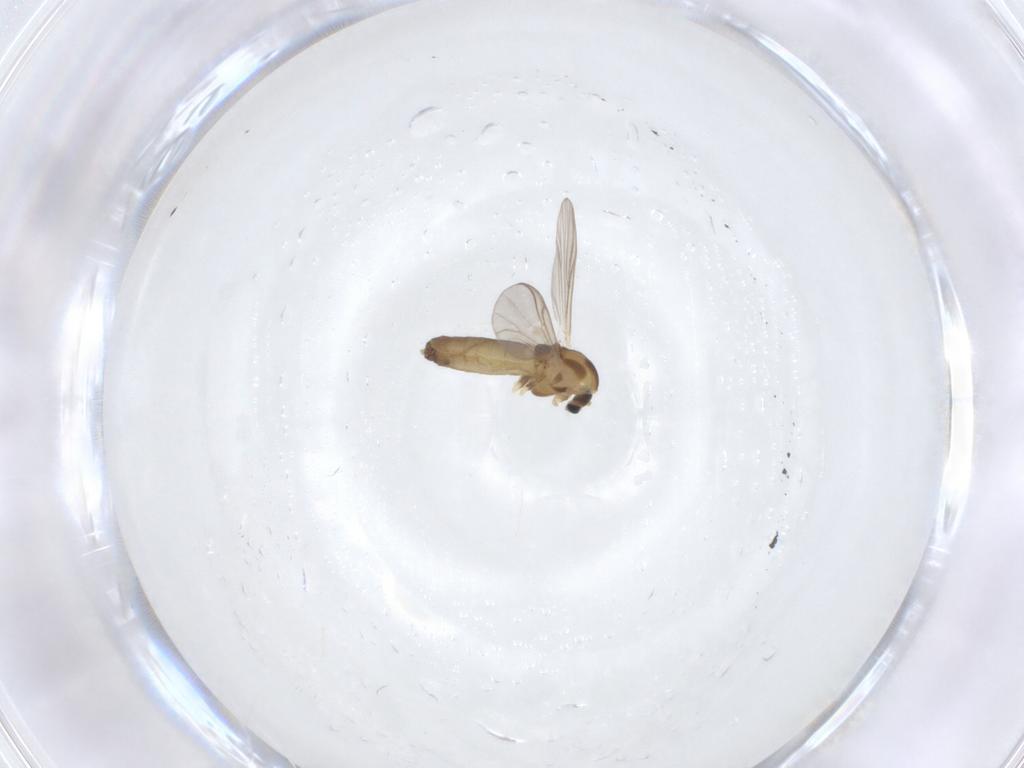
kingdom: Animalia
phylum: Arthropoda
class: Insecta
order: Diptera
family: Chironomidae
